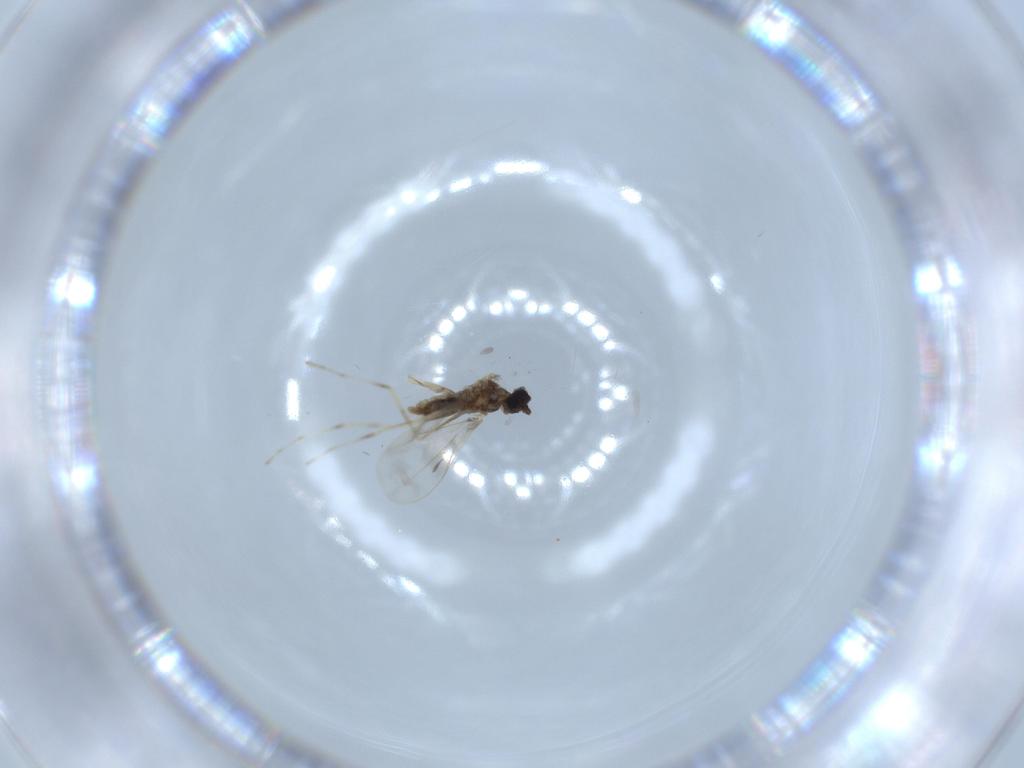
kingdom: Animalia
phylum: Arthropoda
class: Insecta
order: Diptera
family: Cecidomyiidae
